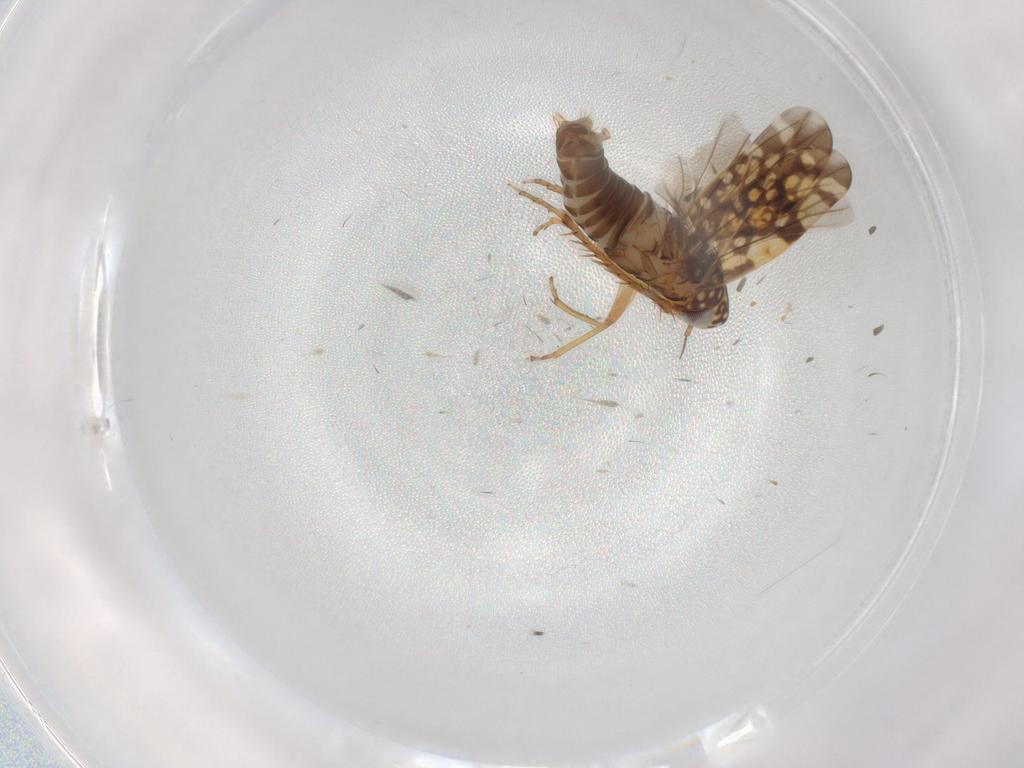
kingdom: Animalia
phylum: Arthropoda
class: Insecta
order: Hemiptera
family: Cicadellidae
